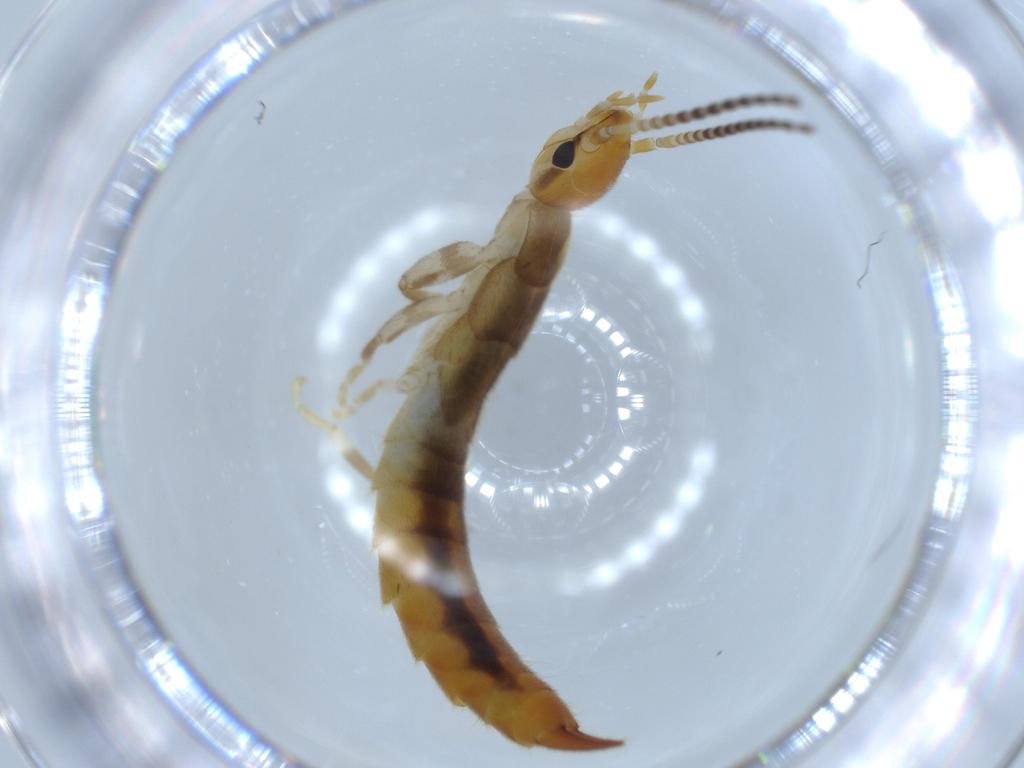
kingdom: Animalia
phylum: Arthropoda
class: Insecta
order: Dermaptera
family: Forficulidae
